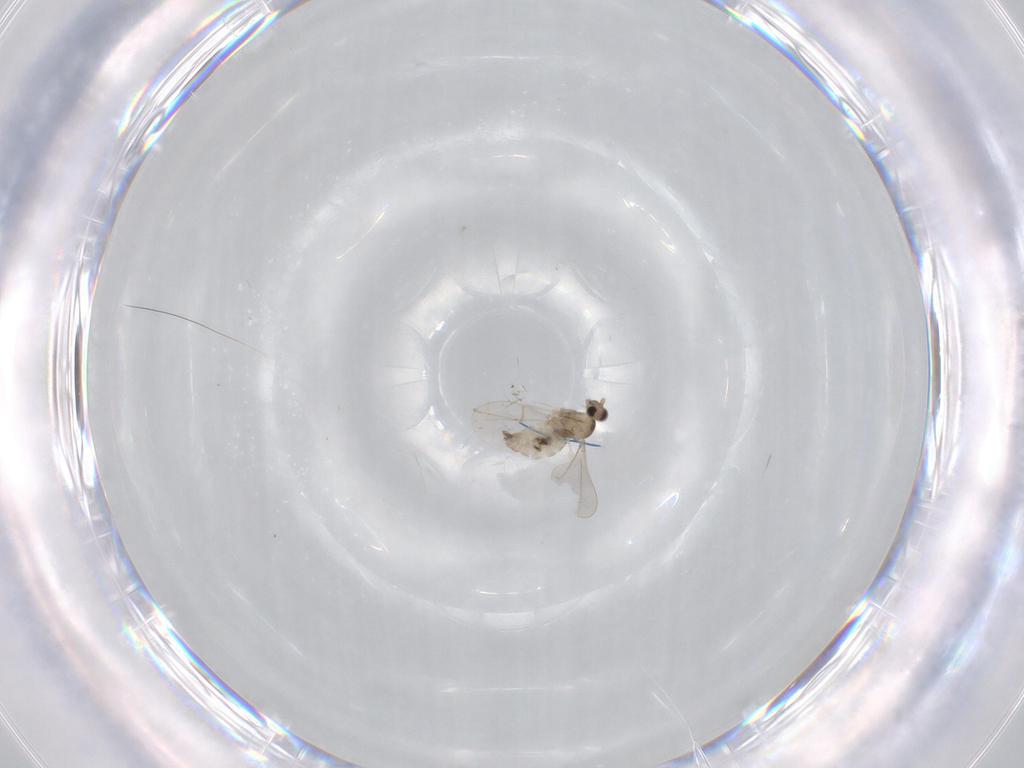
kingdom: Animalia
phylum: Arthropoda
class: Insecta
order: Diptera
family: Cecidomyiidae
